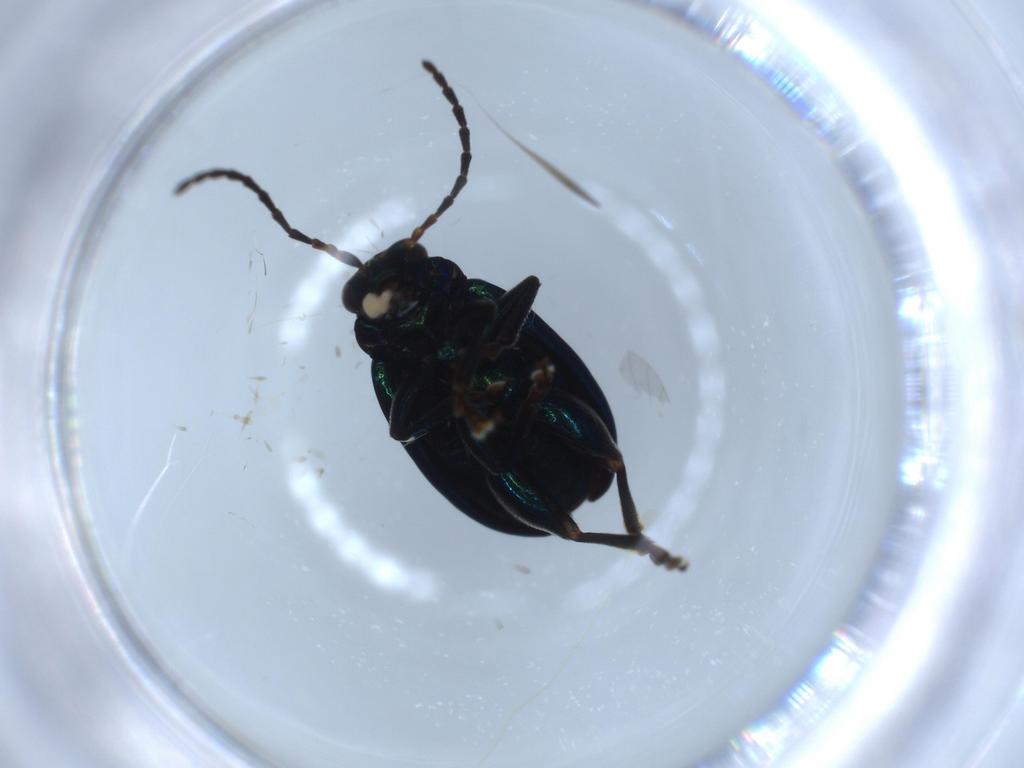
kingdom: Animalia
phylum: Arthropoda
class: Insecta
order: Coleoptera
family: Chrysomelidae
